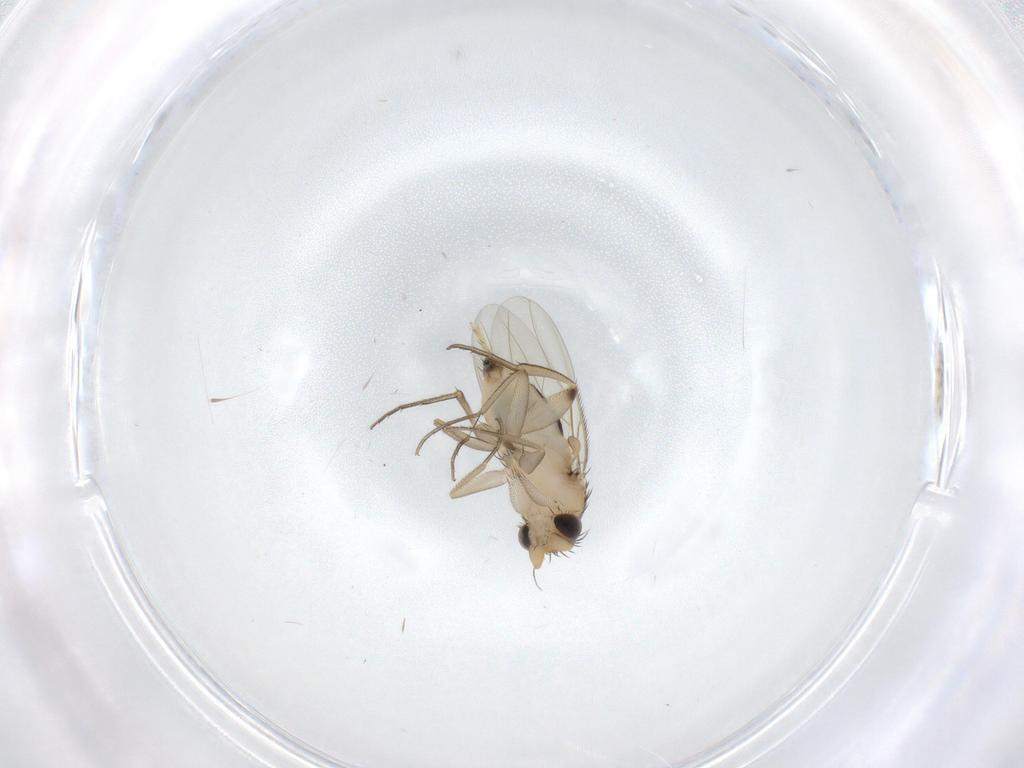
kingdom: Animalia
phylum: Arthropoda
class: Insecta
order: Diptera
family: Phoridae
